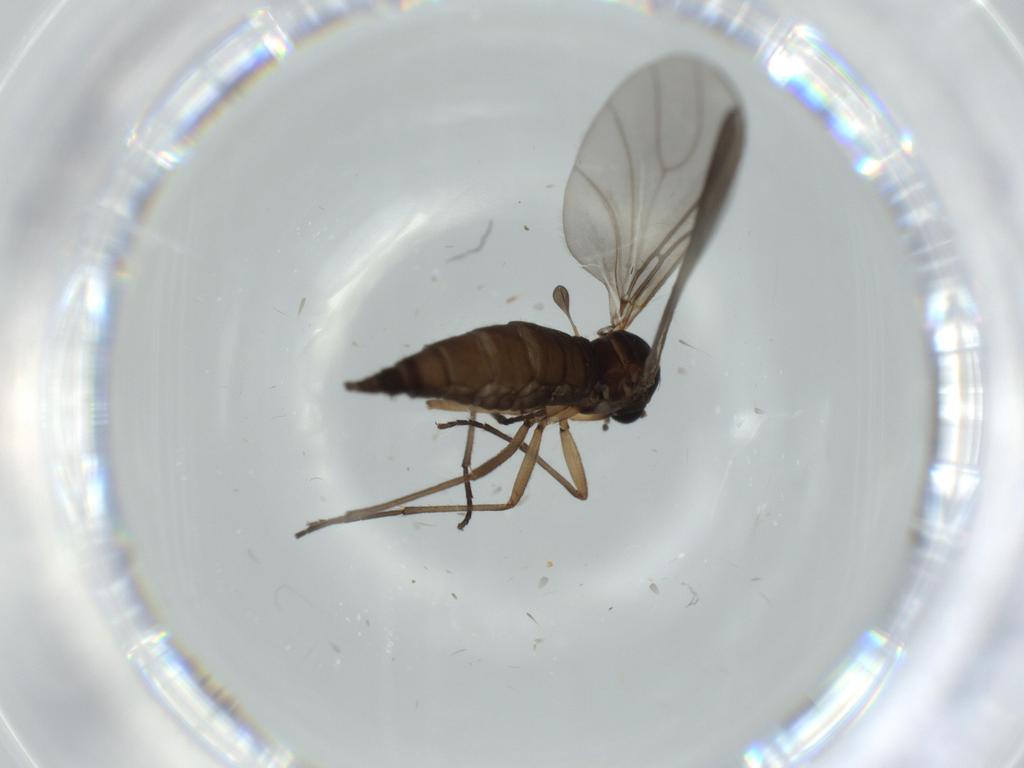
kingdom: Animalia
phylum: Arthropoda
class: Insecta
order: Diptera
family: Sciaridae
